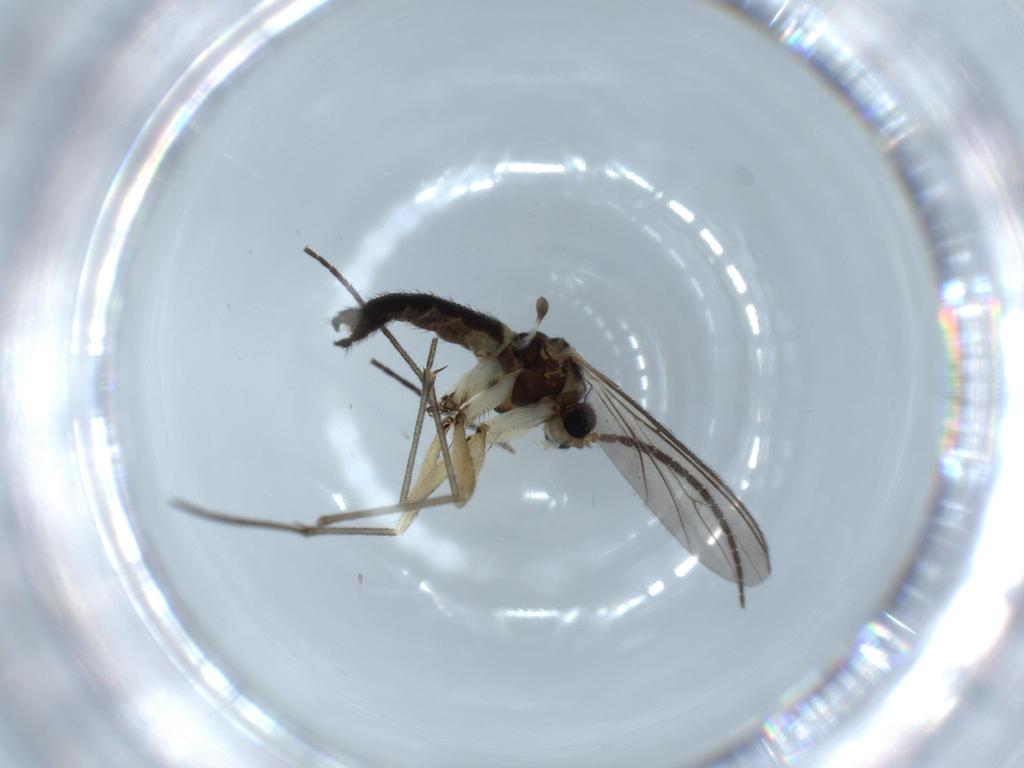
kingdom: Animalia
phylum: Arthropoda
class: Insecta
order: Diptera
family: Sciaridae
